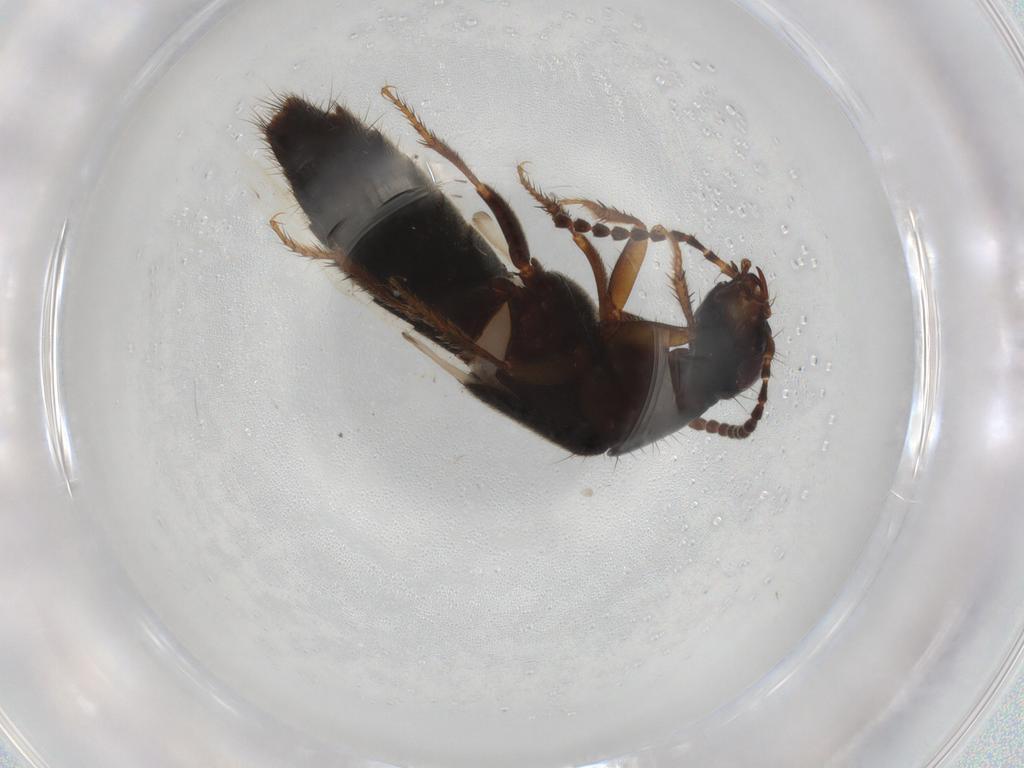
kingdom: Animalia
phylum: Arthropoda
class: Insecta
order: Coleoptera
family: Staphylinidae
